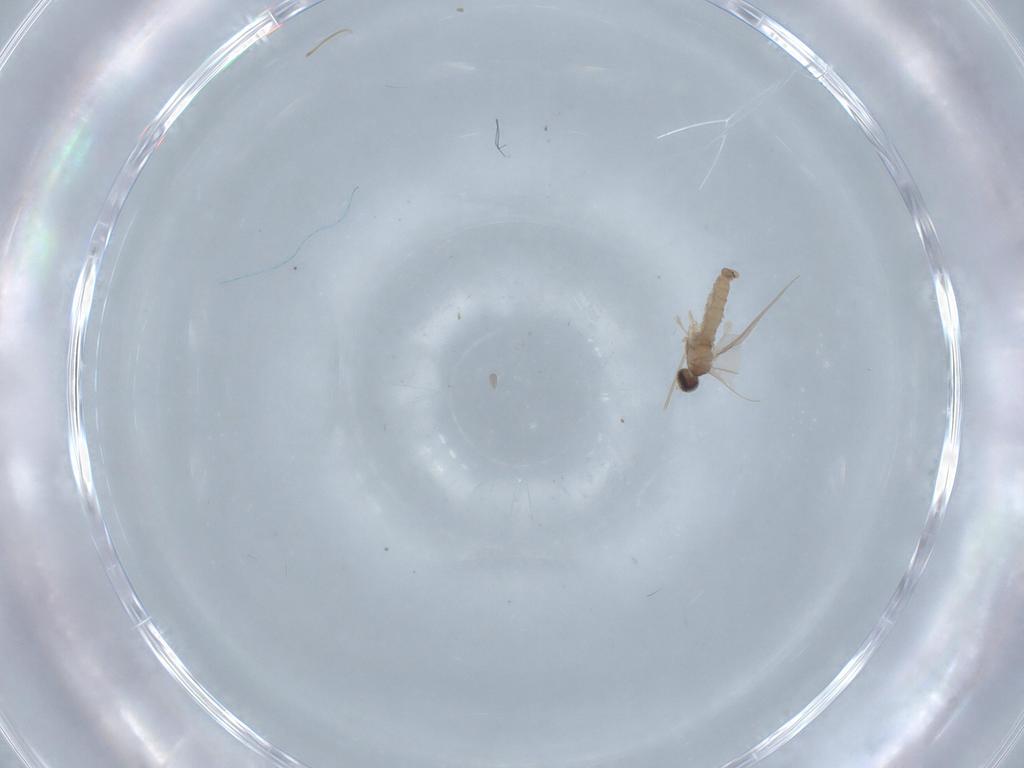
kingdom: Animalia
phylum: Arthropoda
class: Insecta
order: Diptera
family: Cecidomyiidae
